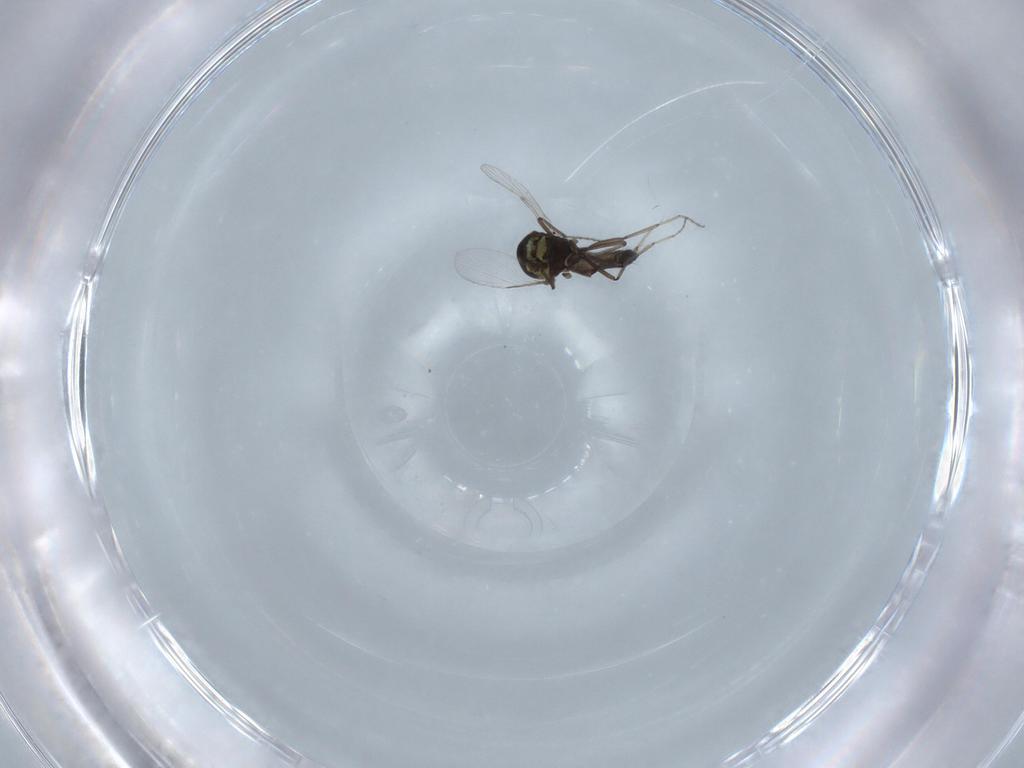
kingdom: Animalia
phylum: Arthropoda
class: Insecta
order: Diptera
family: Ceratopogonidae
